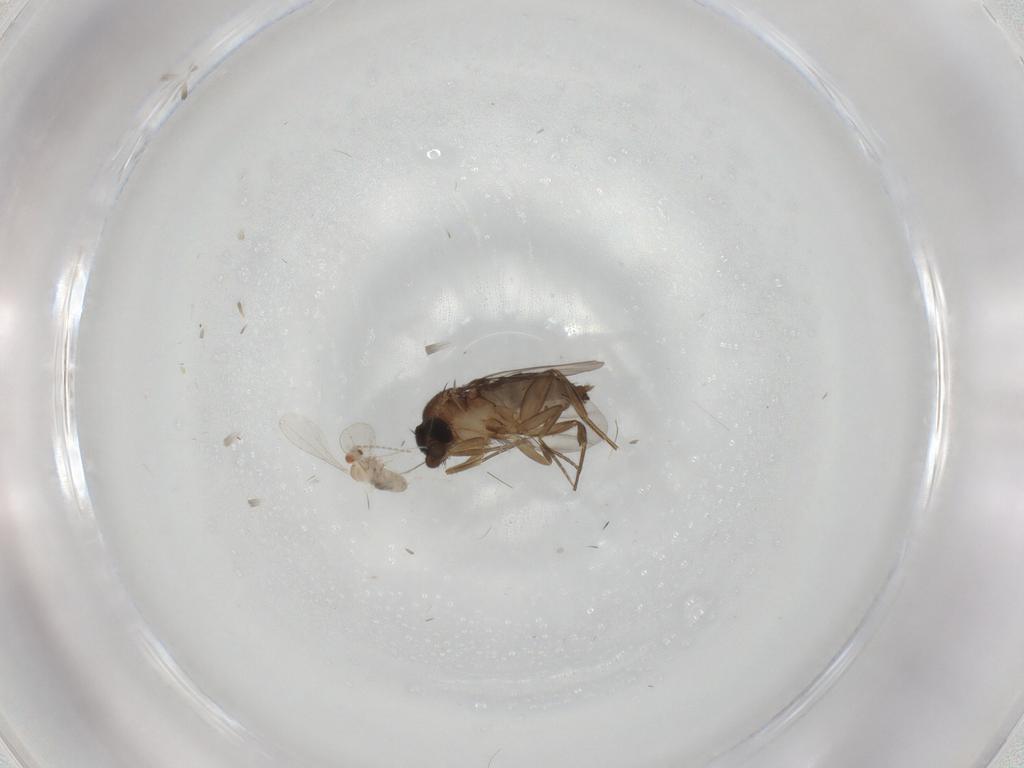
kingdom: Animalia
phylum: Arthropoda
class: Insecta
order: Diptera
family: Phoridae
